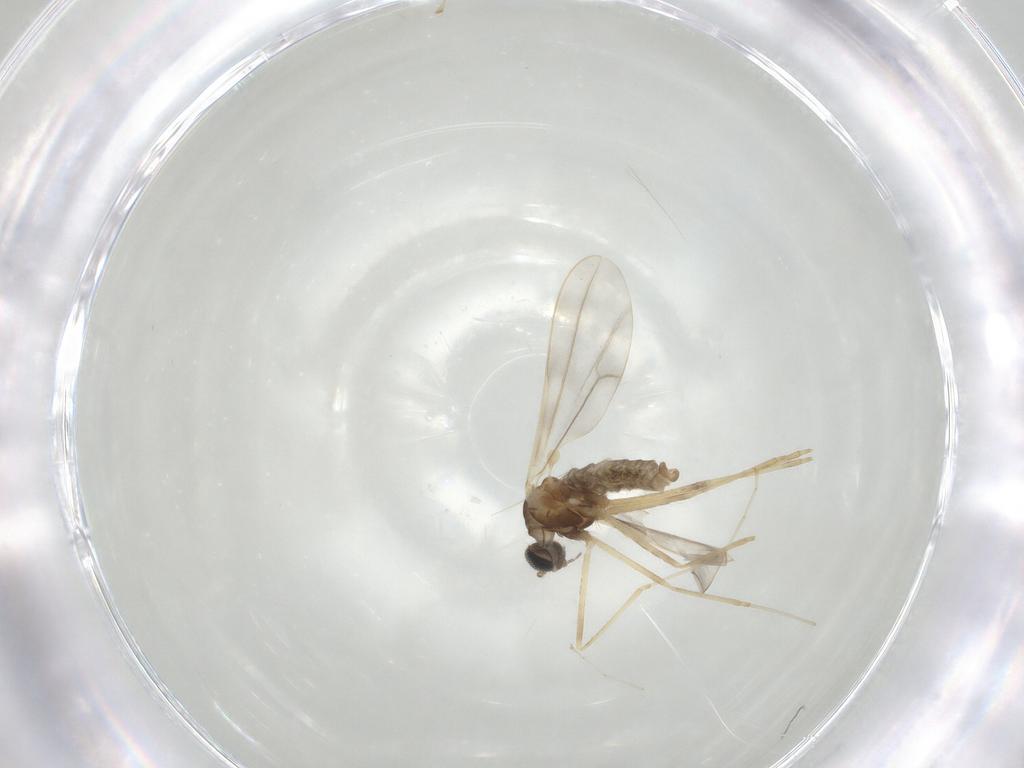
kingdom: Animalia
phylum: Arthropoda
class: Insecta
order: Diptera
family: Cecidomyiidae
